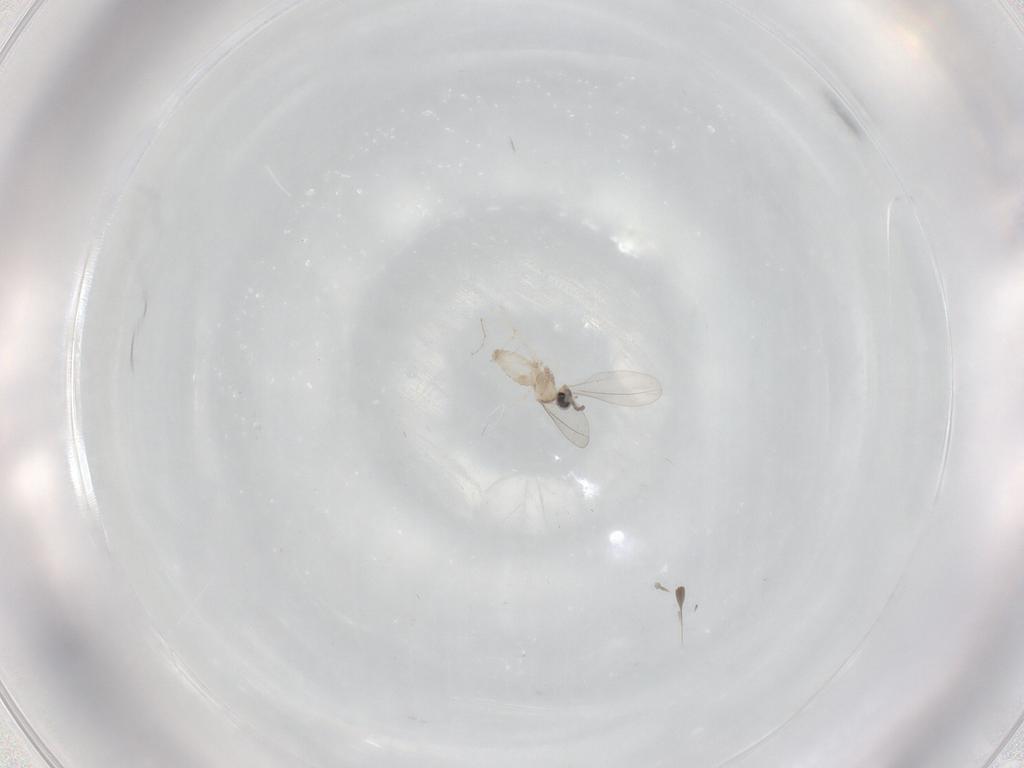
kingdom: Animalia
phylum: Arthropoda
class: Insecta
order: Diptera
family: Cecidomyiidae
